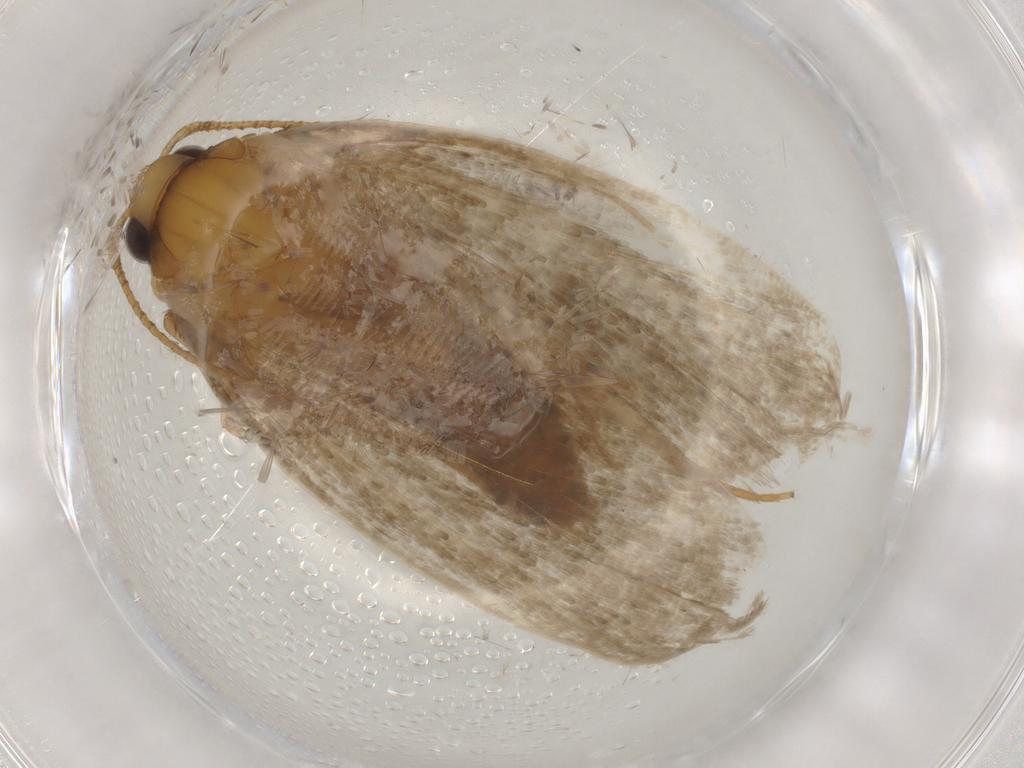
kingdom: Animalia
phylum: Arthropoda
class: Insecta
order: Lepidoptera
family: Oecophoridae
